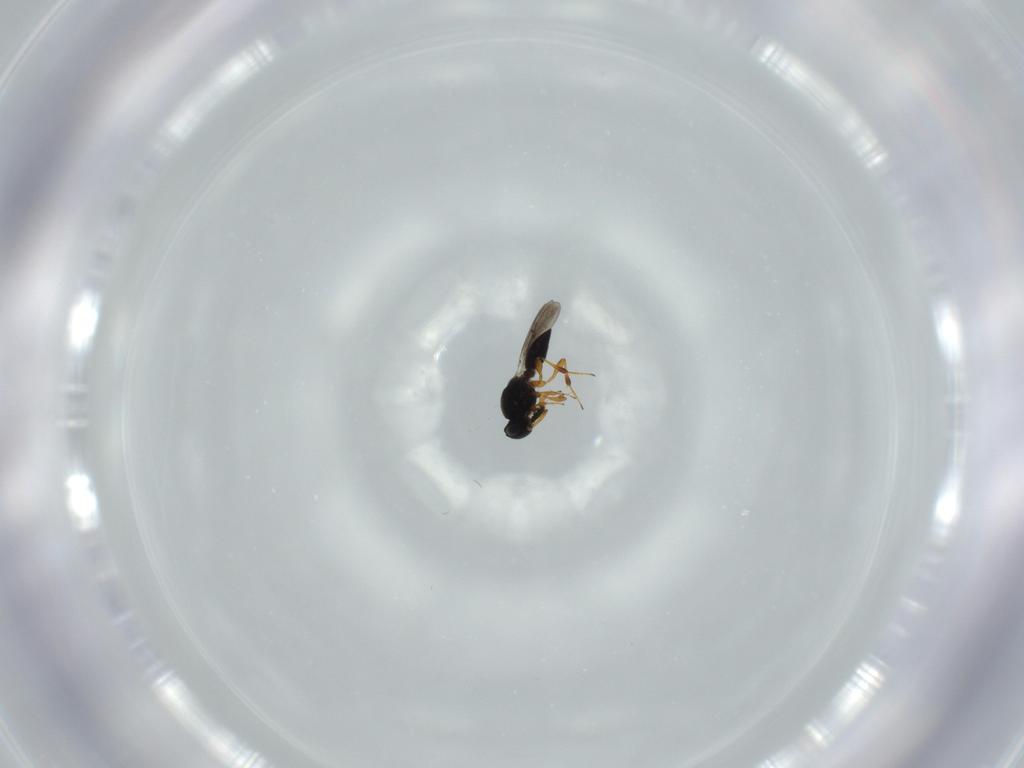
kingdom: Animalia
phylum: Arthropoda
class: Insecta
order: Hymenoptera
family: Platygastridae
